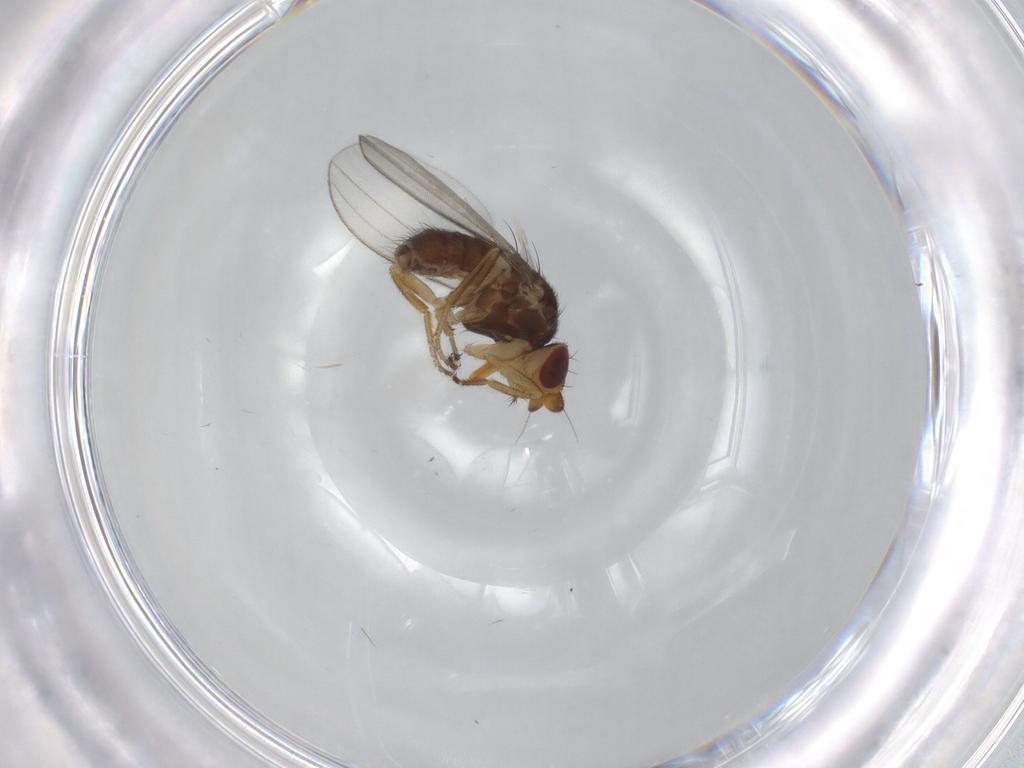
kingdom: Animalia
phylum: Arthropoda
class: Insecta
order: Diptera
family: Milichiidae
